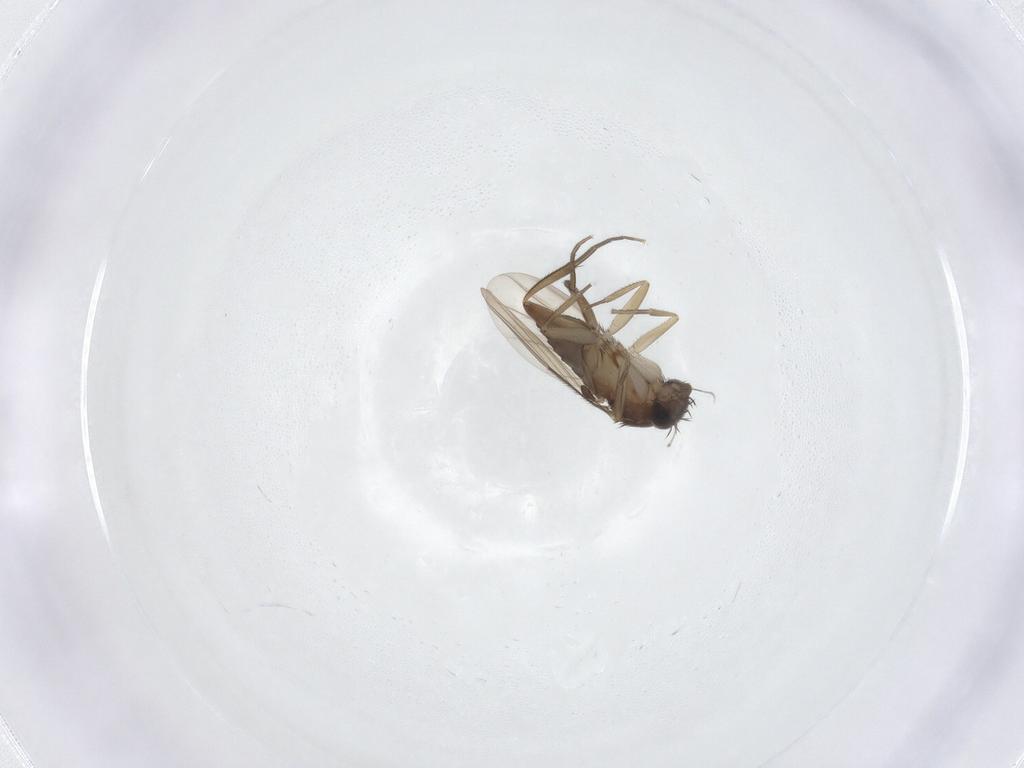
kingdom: Animalia
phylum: Arthropoda
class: Insecta
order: Diptera
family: Phoridae
